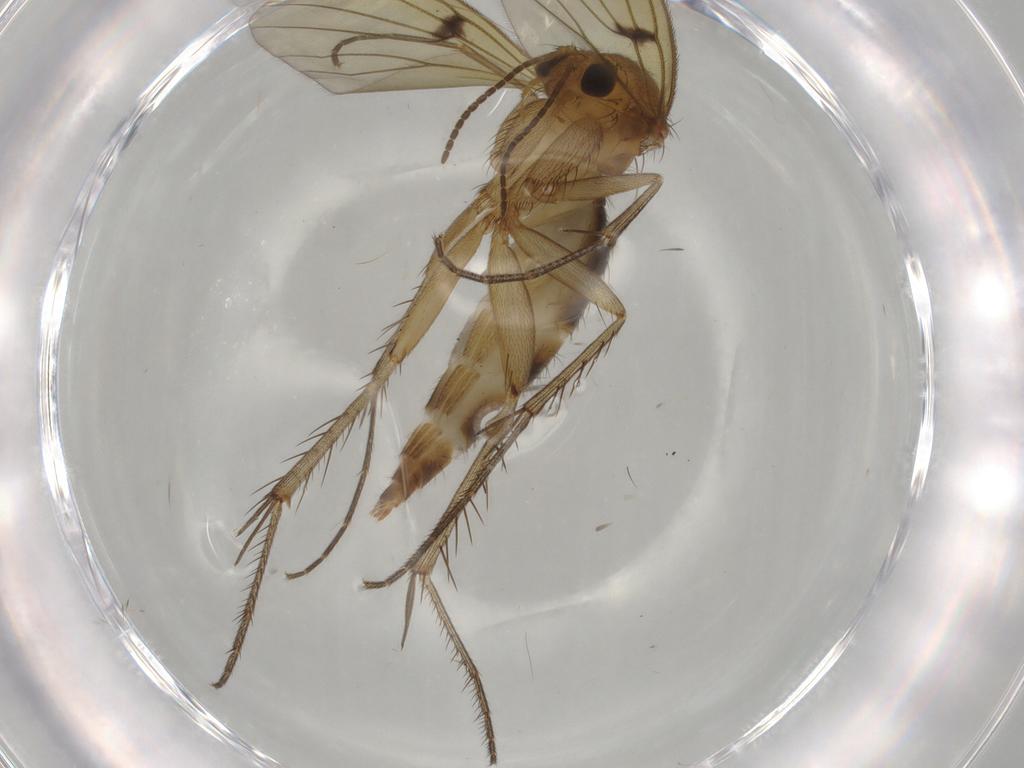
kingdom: Animalia
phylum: Arthropoda
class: Insecta
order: Diptera
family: Mycetophilidae
